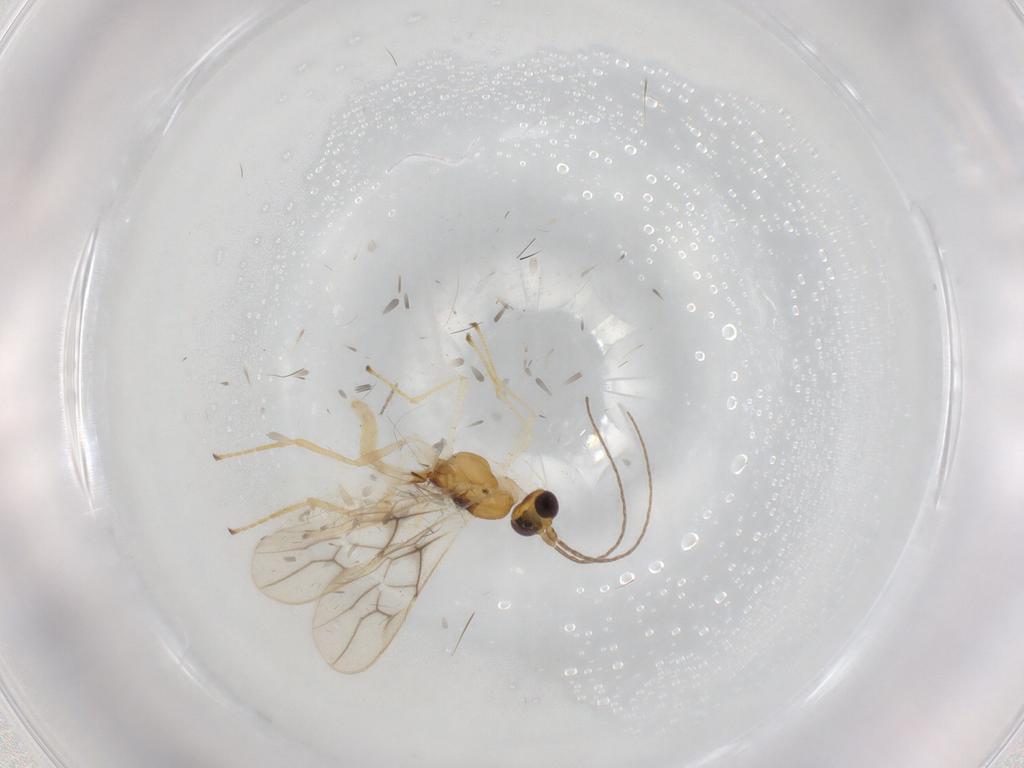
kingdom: Animalia
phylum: Arthropoda
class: Insecta
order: Hymenoptera
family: Braconidae
